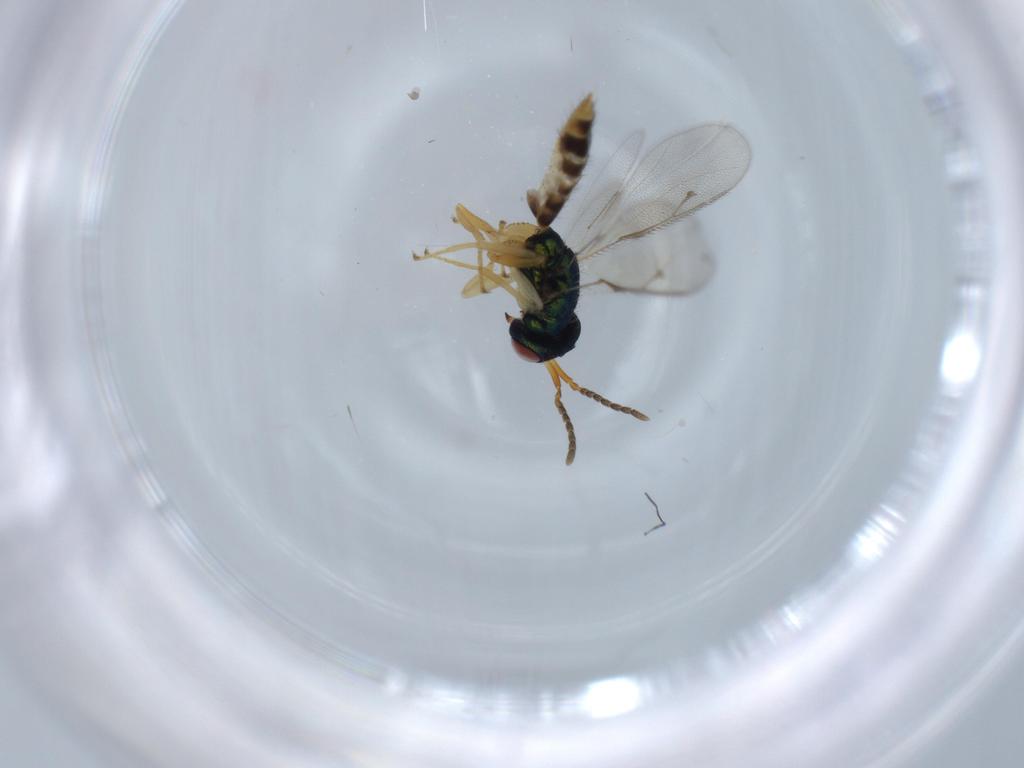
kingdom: Animalia
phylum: Arthropoda
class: Insecta
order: Hymenoptera
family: Pteromalidae
